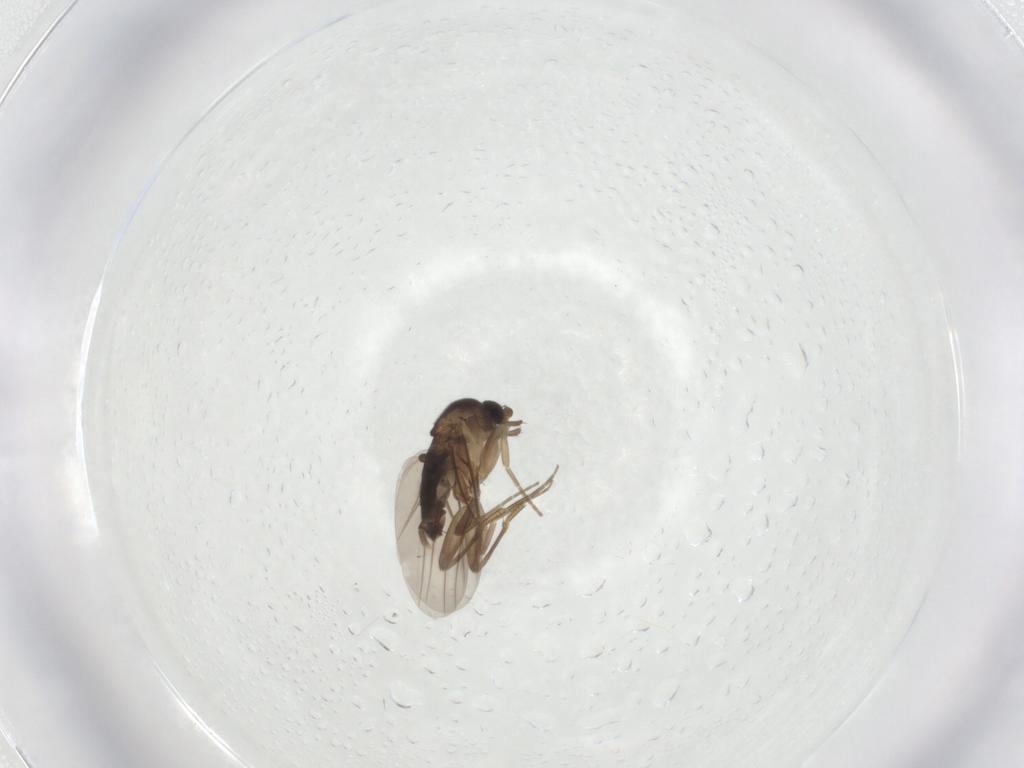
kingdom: Animalia
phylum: Arthropoda
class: Insecta
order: Diptera
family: Phoridae
